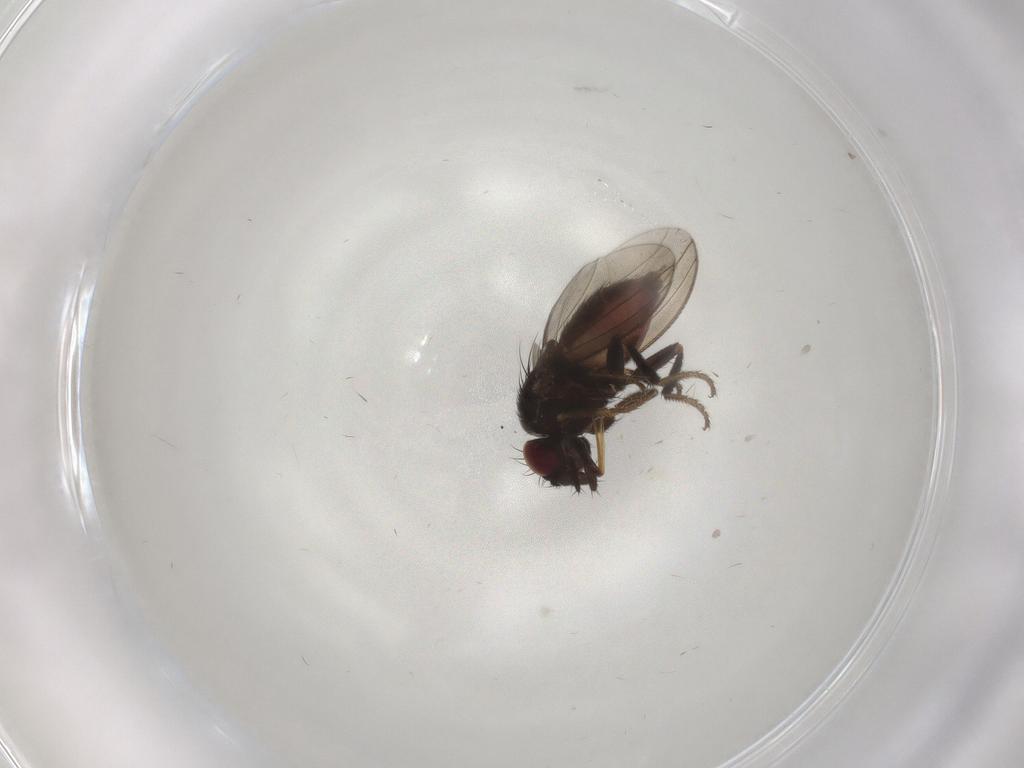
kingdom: Animalia
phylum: Arthropoda
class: Insecta
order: Diptera
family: Milichiidae
